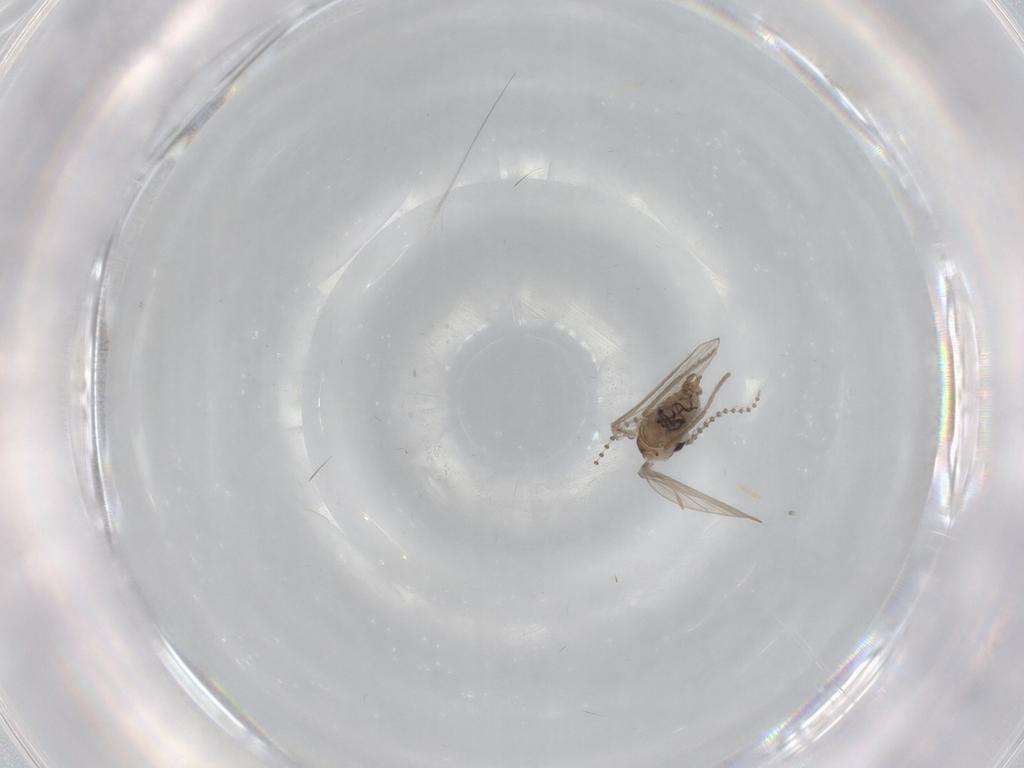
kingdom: Animalia
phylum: Arthropoda
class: Insecta
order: Diptera
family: Psychodidae
